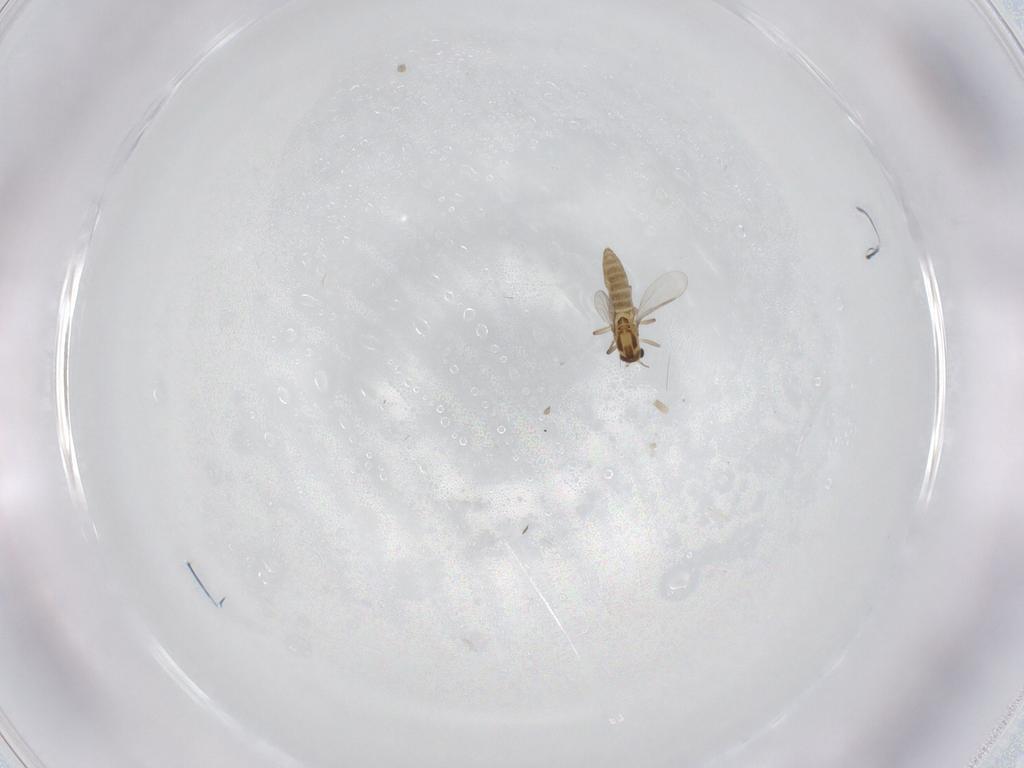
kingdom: Animalia
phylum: Arthropoda
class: Insecta
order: Diptera
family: Chironomidae
